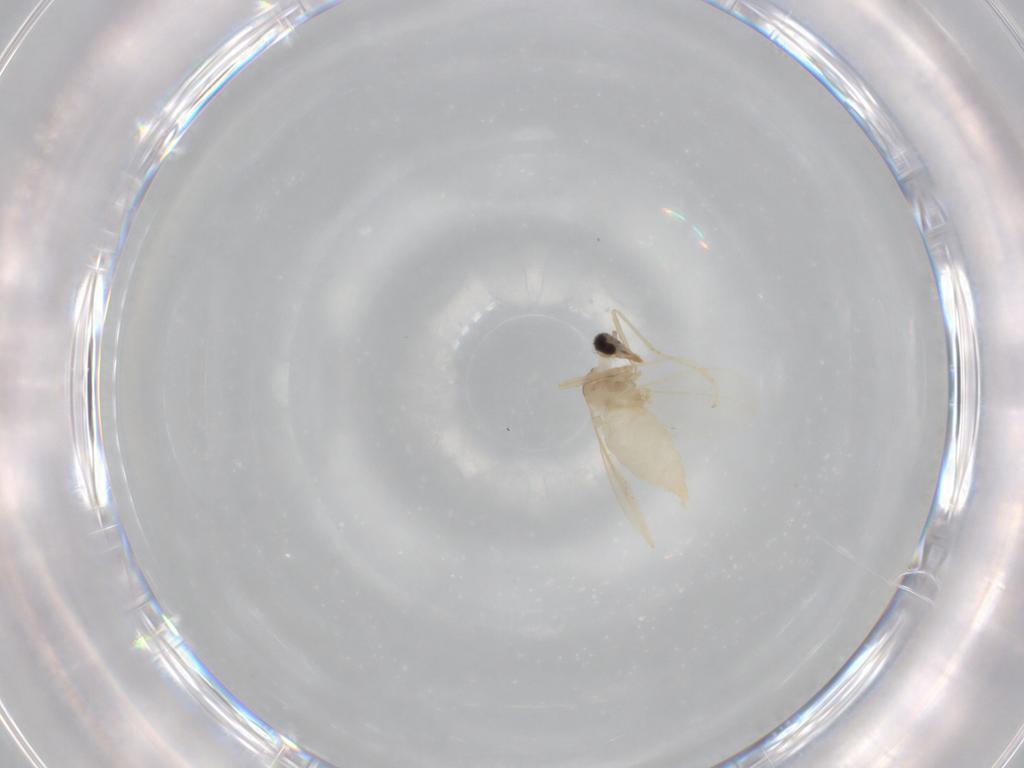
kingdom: Animalia
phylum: Arthropoda
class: Insecta
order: Diptera
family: Cecidomyiidae
